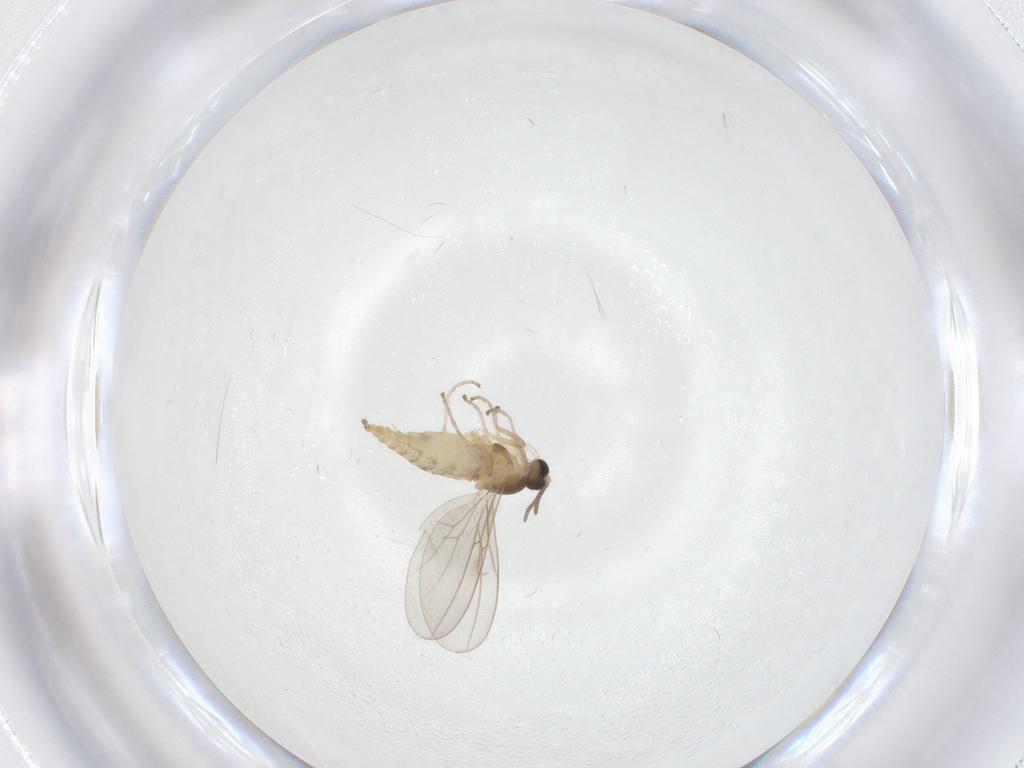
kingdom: Animalia
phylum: Arthropoda
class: Insecta
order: Diptera
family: Cecidomyiidae
